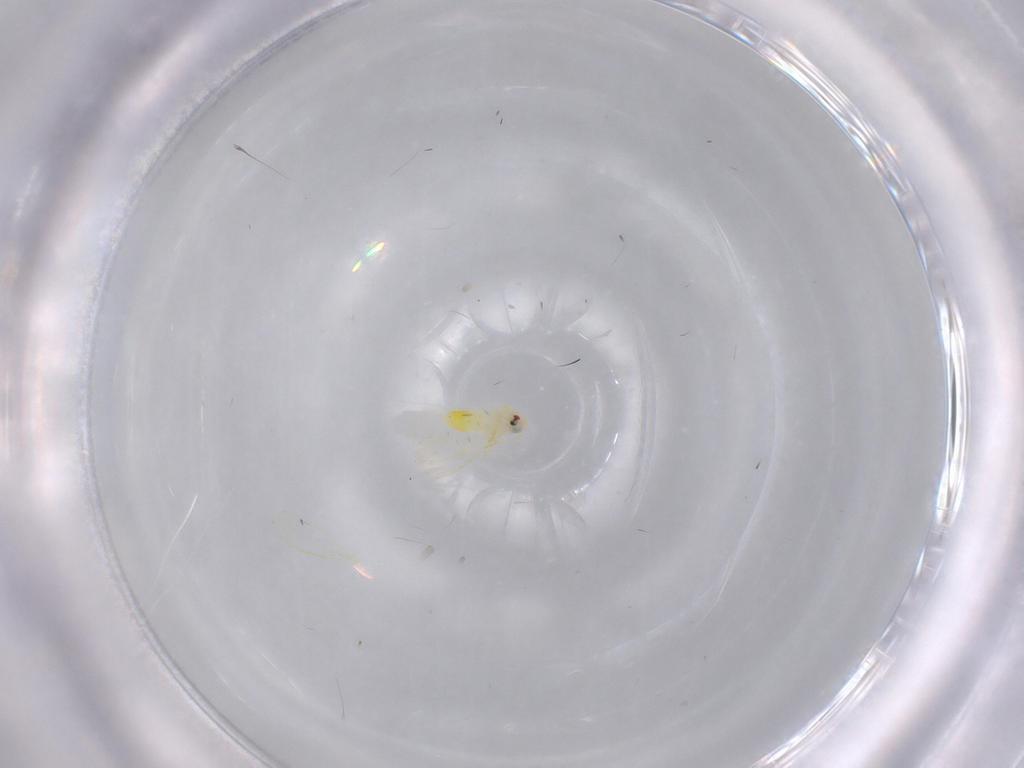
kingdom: Animalia
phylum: Arthropoda
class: Insecta
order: Hemiptera
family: Aleyrodidae
